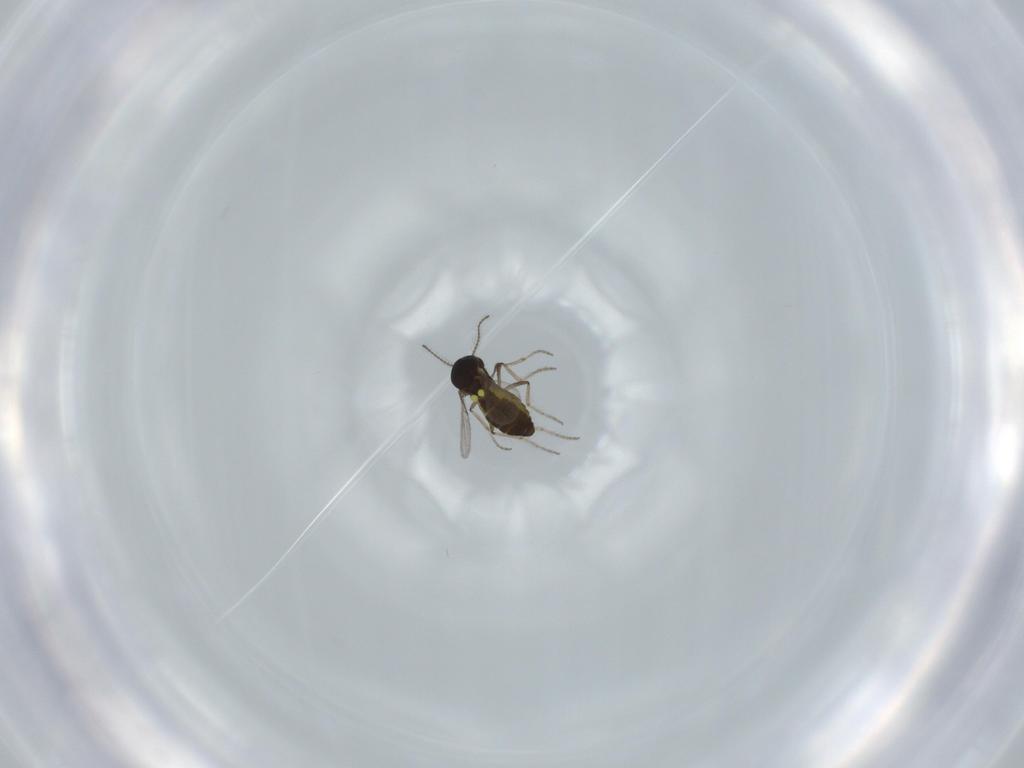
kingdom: Animalia
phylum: Arthropoda
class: Insecta
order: Diptera
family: Ceratopogonidae
